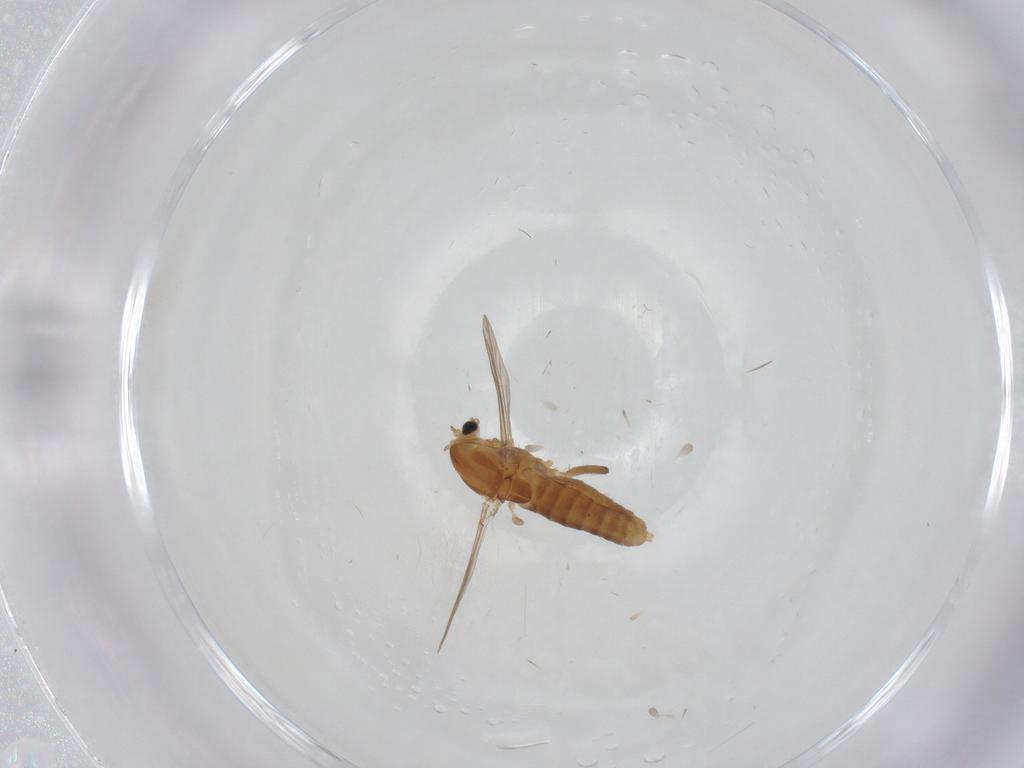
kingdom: Animalia
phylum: Arthropoda
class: Insecta
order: Diptera
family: Chironomidae
